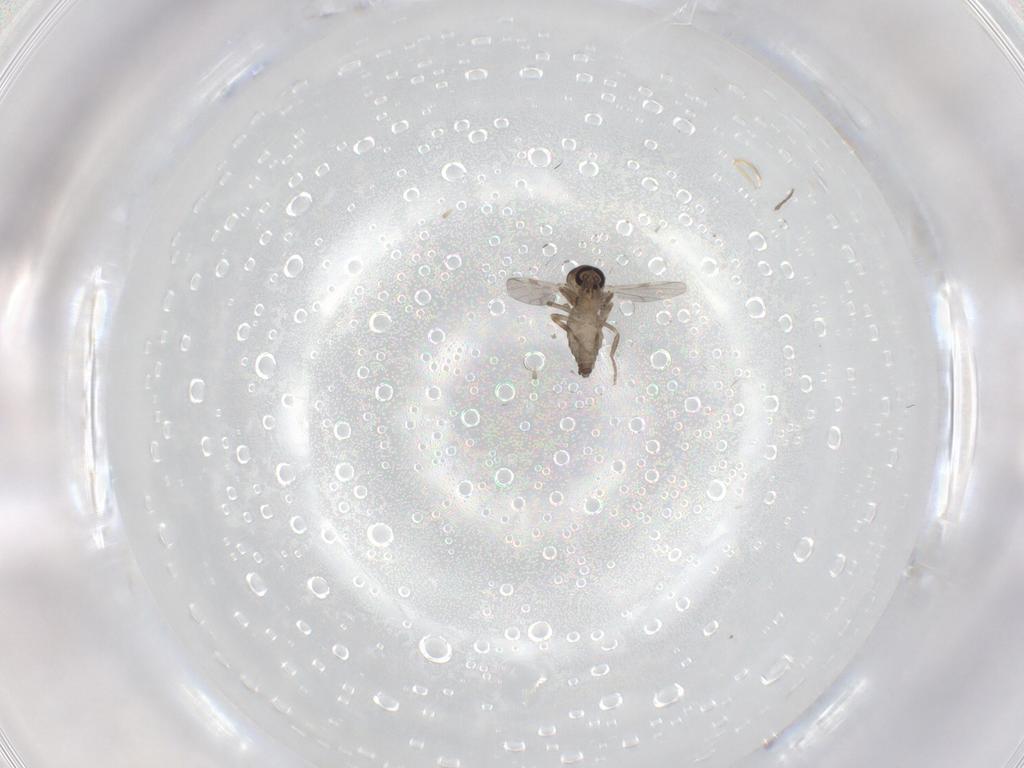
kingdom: Animalia
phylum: Arthropoda
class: Insecta
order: Diptera
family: Ceratopogonidae
